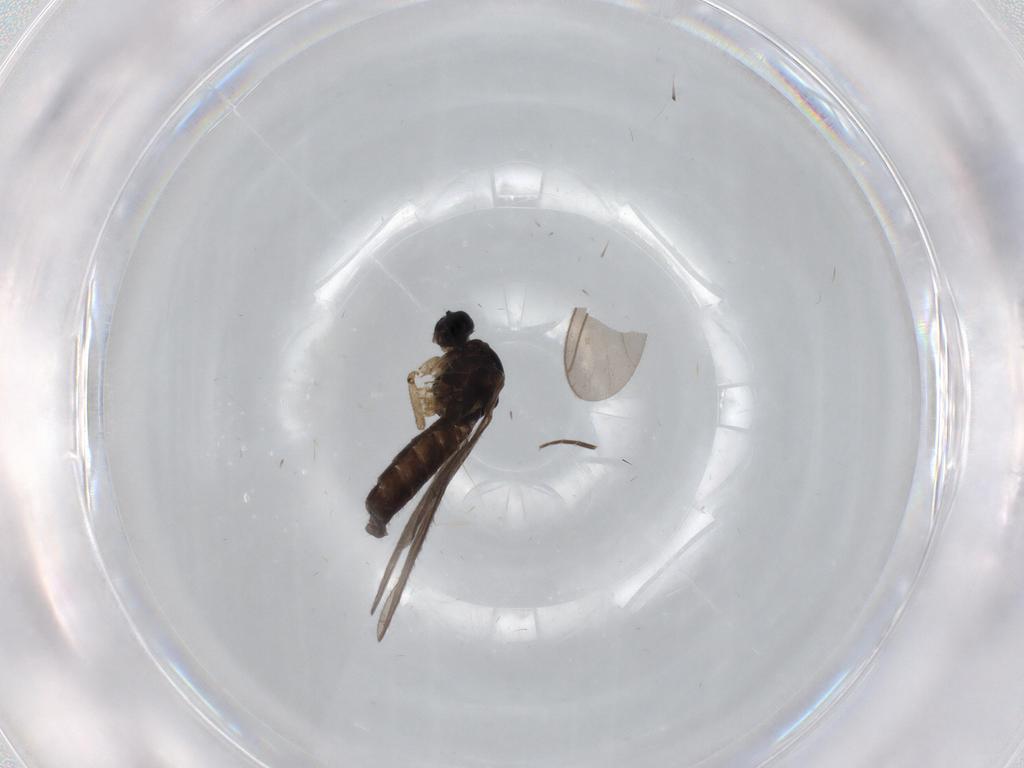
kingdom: Animalia
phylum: Arthropoda
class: Insecta
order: Diptera
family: Sciaridae
